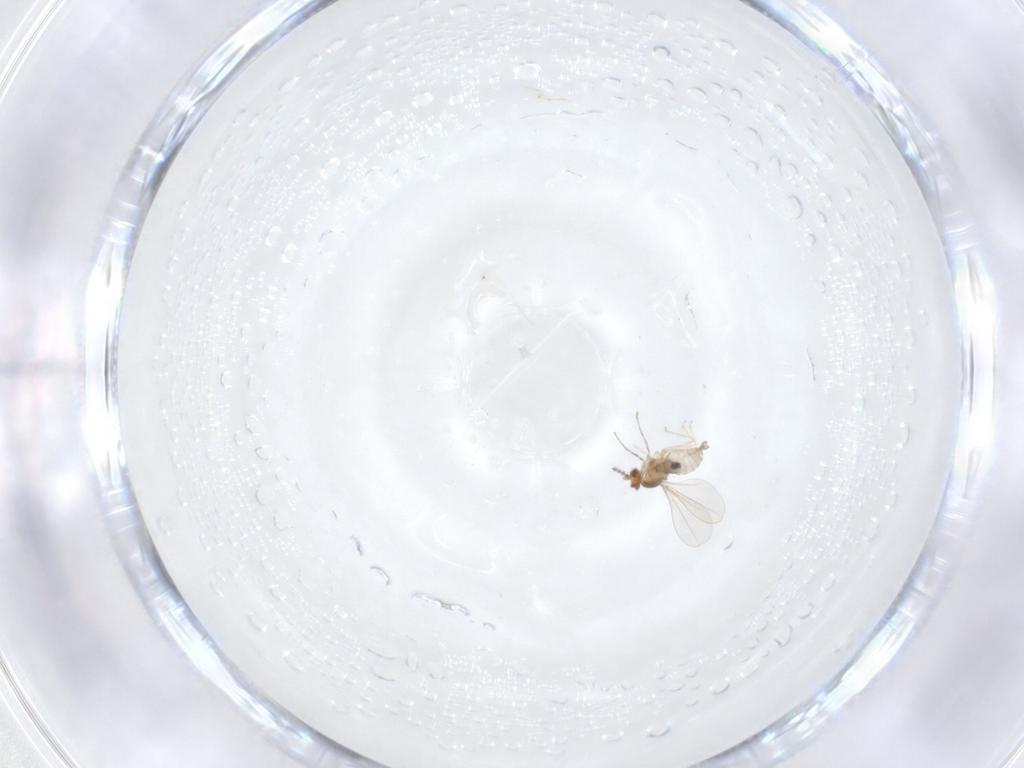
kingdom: Animalia
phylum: Arthropoda
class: Insecta
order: Diptera
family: Cecidomyiidae
